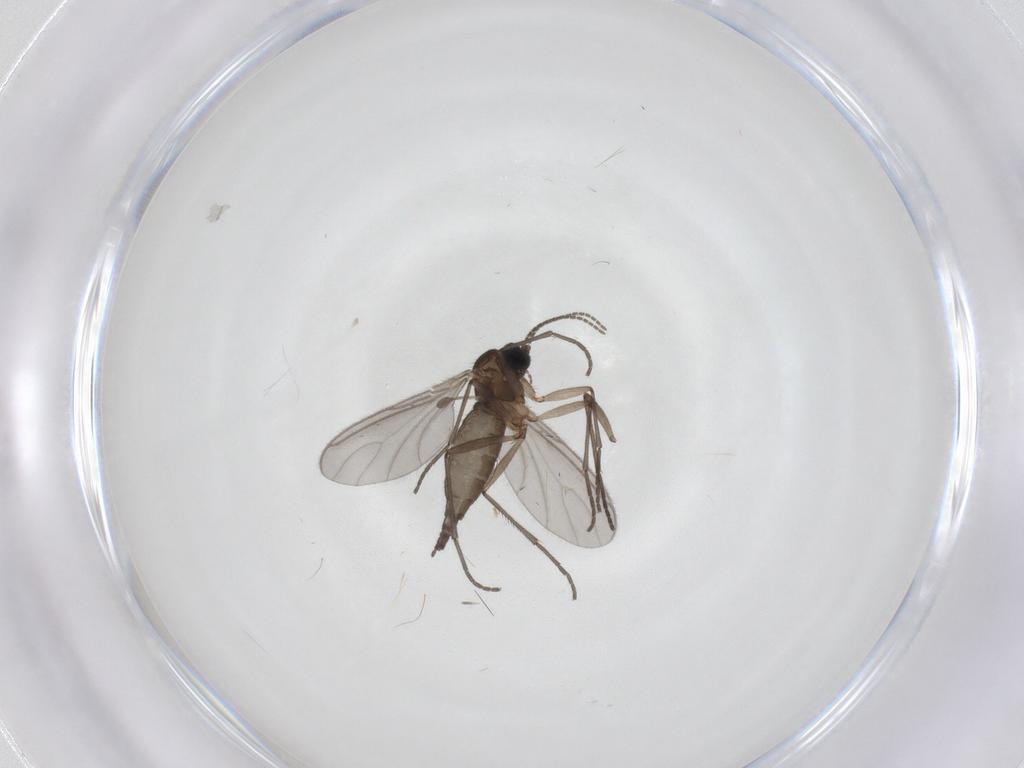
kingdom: Animalia
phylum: Arthropoda
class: Insecta
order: Diptera
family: Sciaridae
